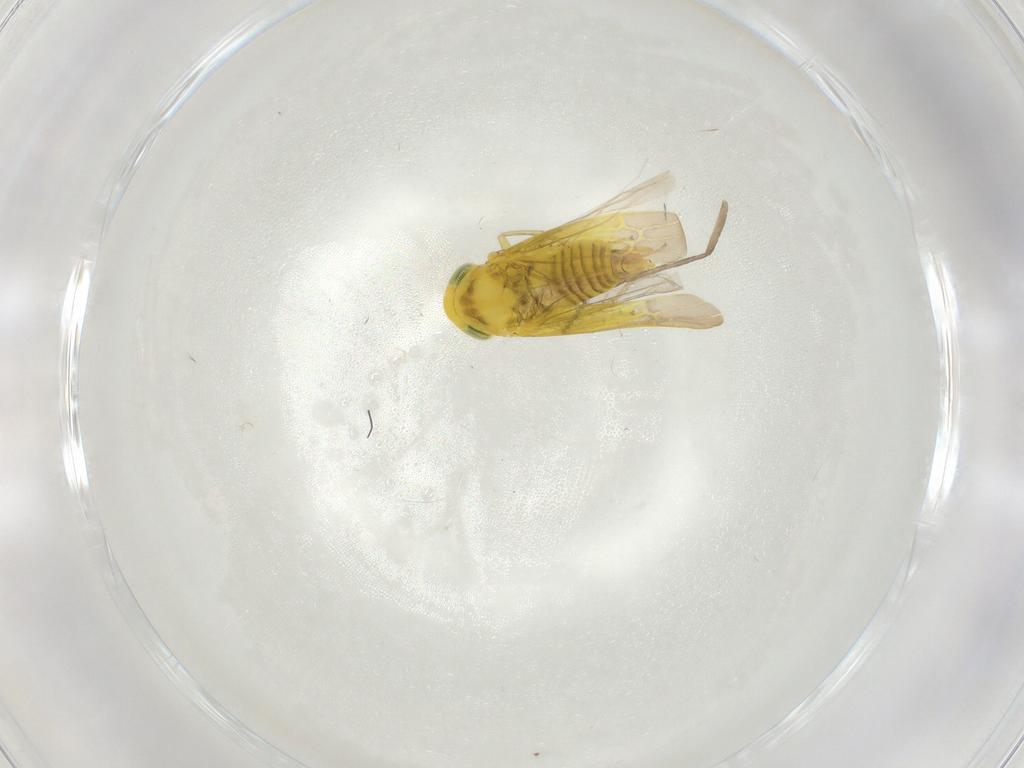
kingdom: Animalia
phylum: Arthropoda
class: Insecta
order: Hemiptera
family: Cicadellidae
